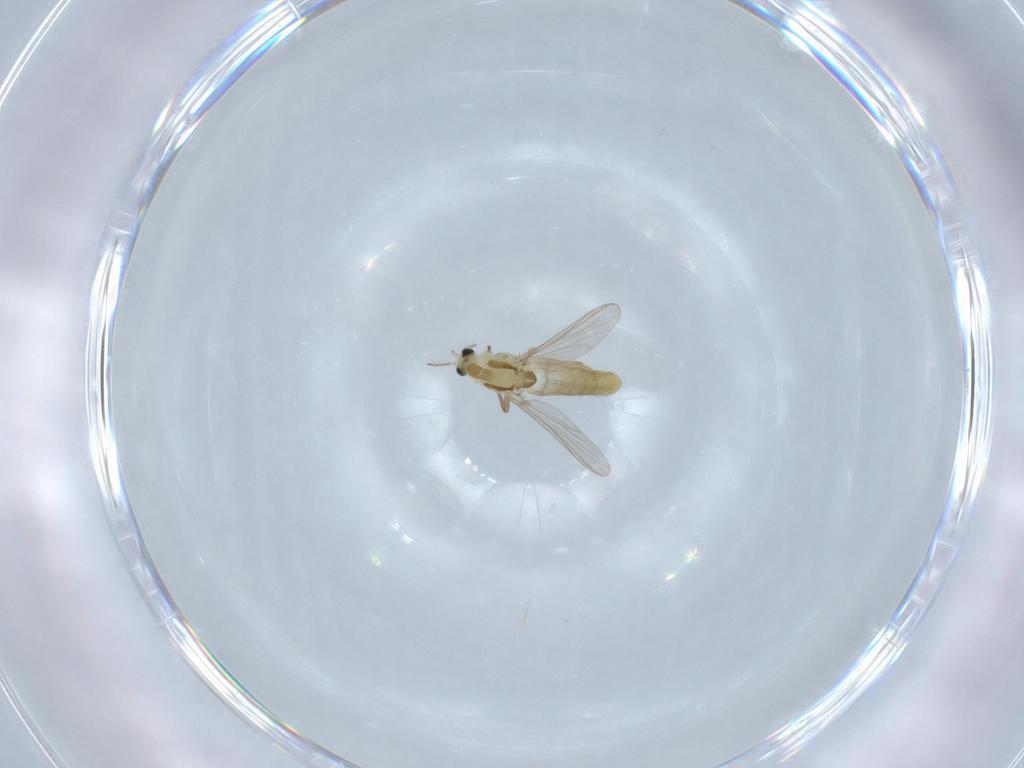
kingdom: Animalia
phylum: Arthropoda
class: Insecta
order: Diptera
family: Chironomidae
